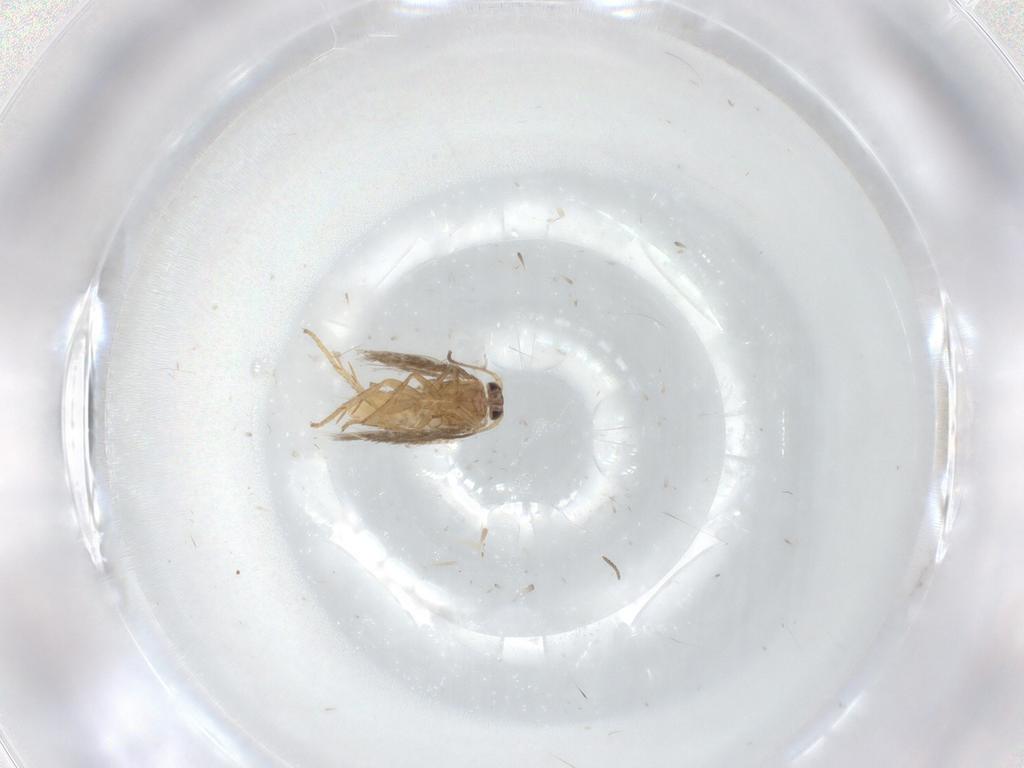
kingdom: Animalia
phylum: Arthropoda
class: Insecta
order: Lepidoptera
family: Nepticulidae
